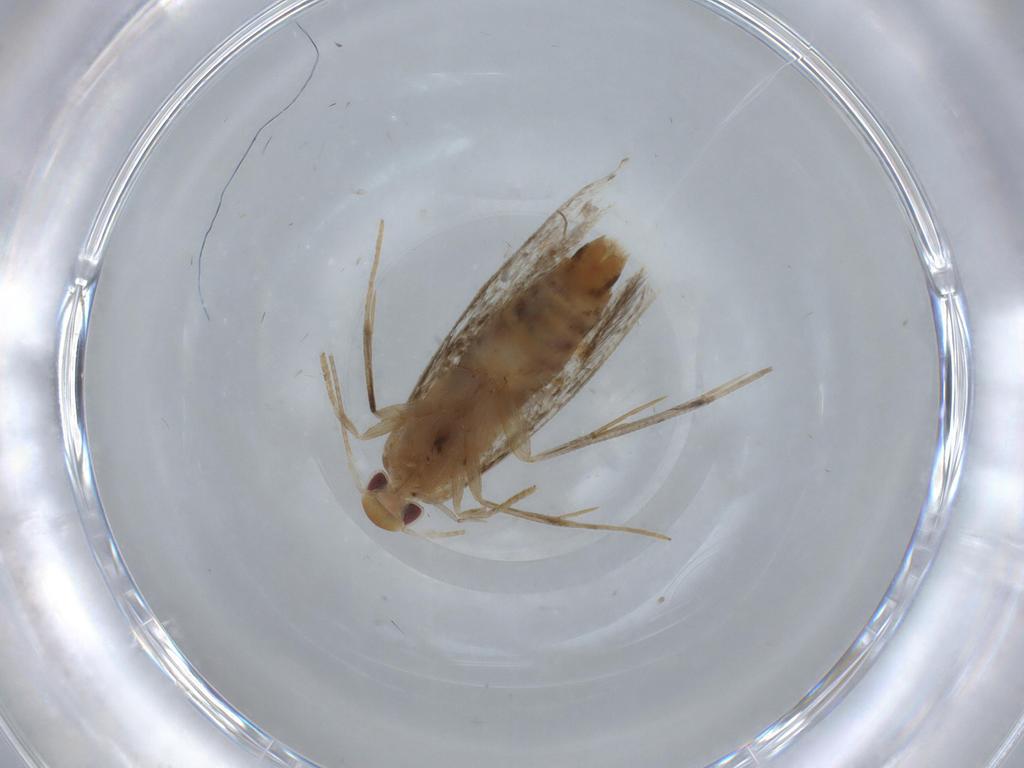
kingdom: Animalia
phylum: Arthropoda
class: Insecta
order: Lepidoptera
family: Momphidae
